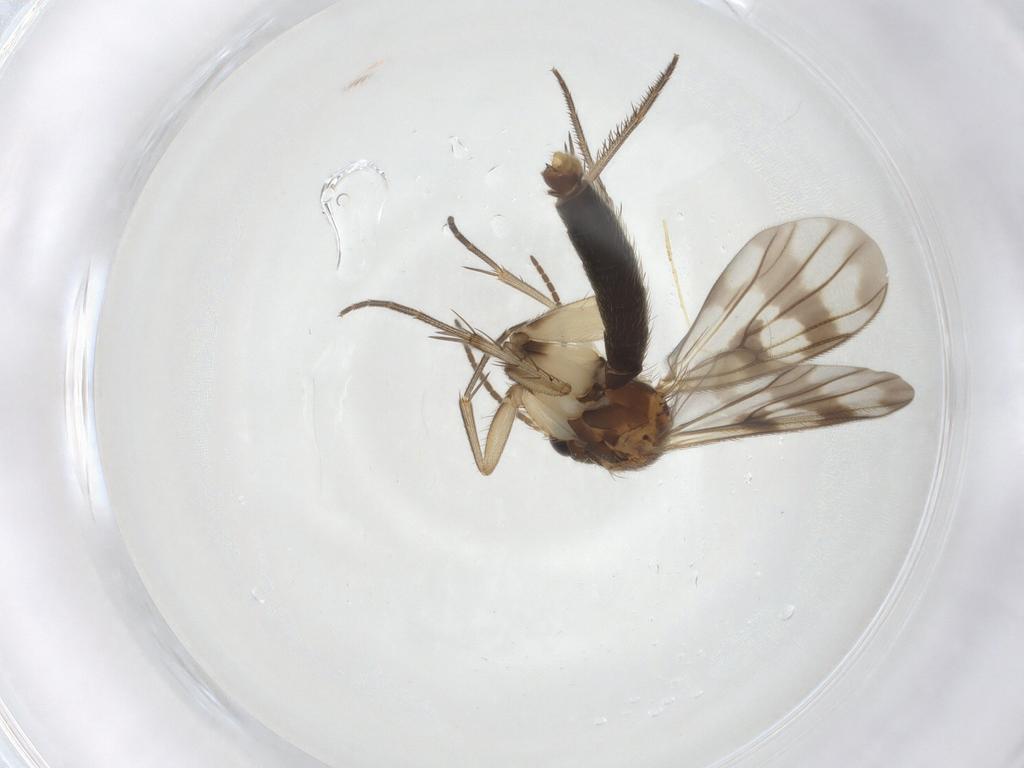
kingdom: Animalia
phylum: Arthropoda
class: Insecta
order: Diptera
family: Mycetophilidae
